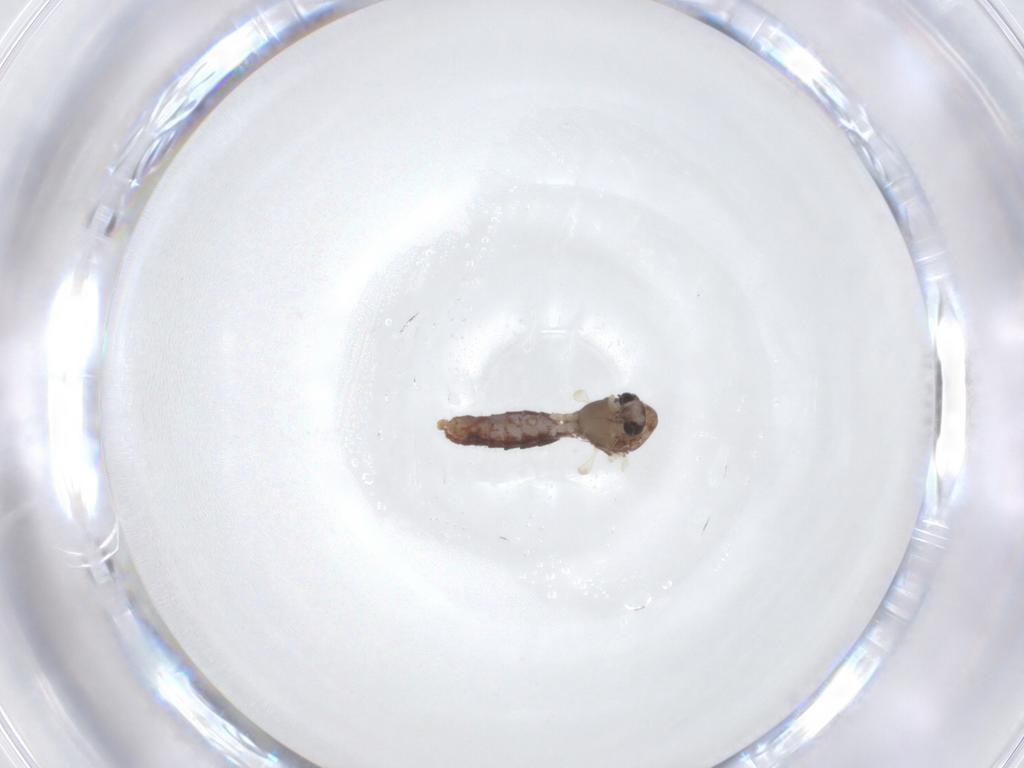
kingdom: Animalia
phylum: Arthropoda
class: Insecta
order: Diptera
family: Chironomidae
